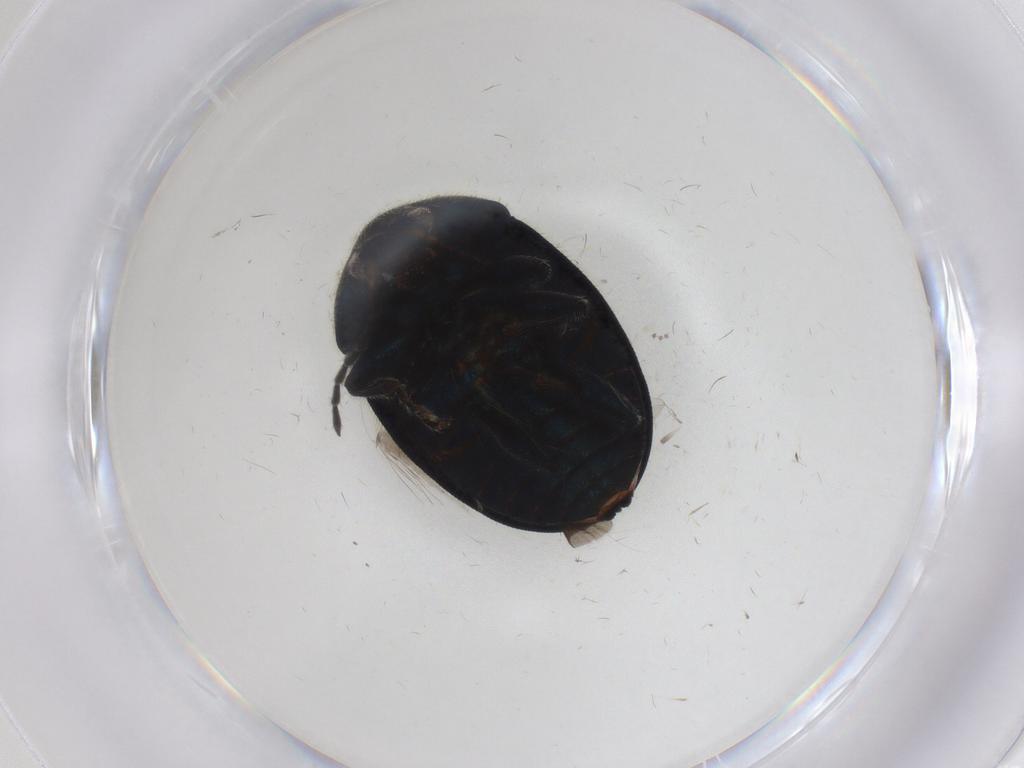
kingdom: Animalia
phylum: Arthropoda
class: Insecta
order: Coleoptera
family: Chrysomelidae
